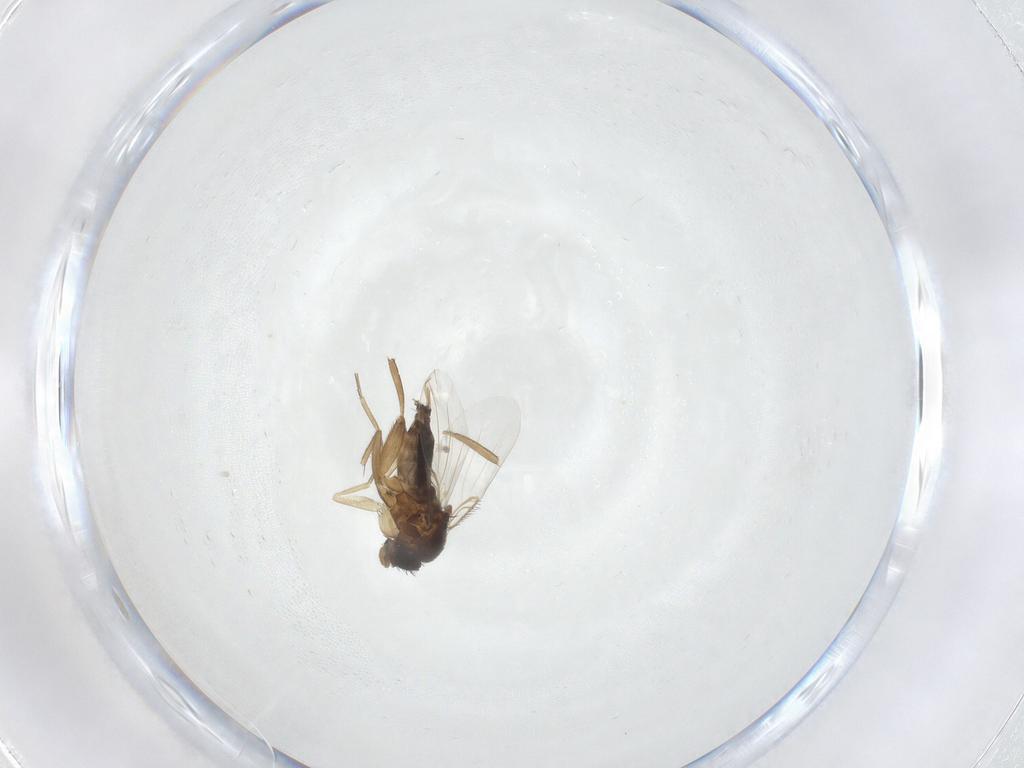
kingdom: Animalia
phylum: Arthropoda
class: Insecta
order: Diptera
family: Phoridae
